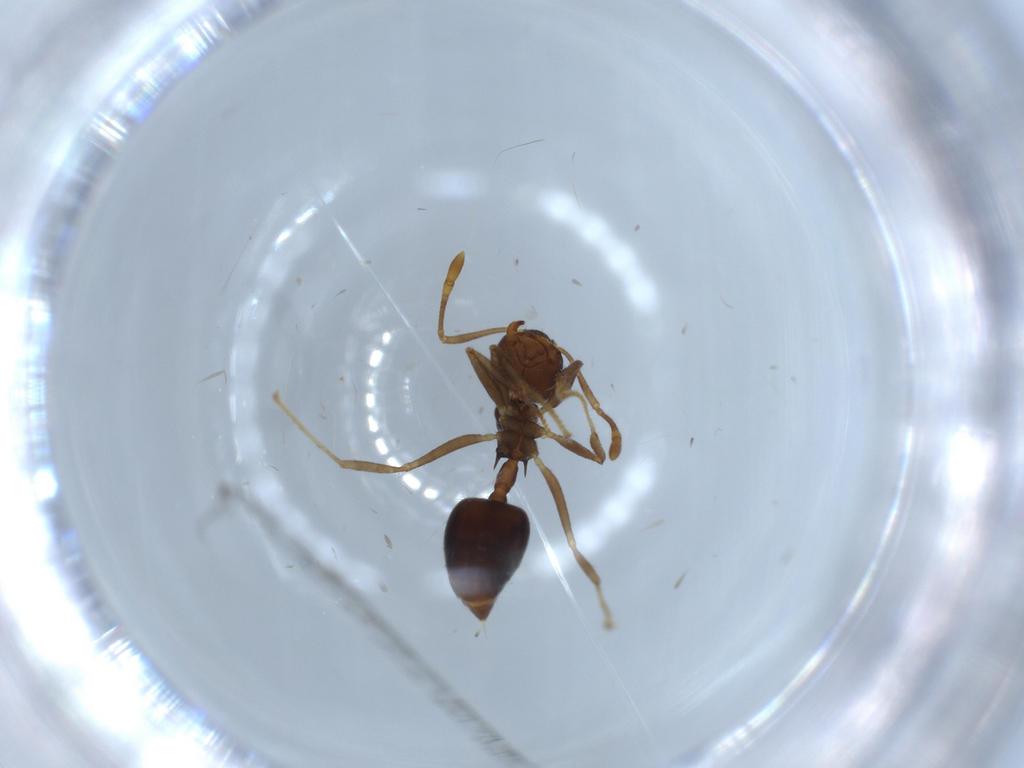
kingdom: Animalia
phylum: Arthropoda
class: Insecta
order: Hymenoptera
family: Formicidae
